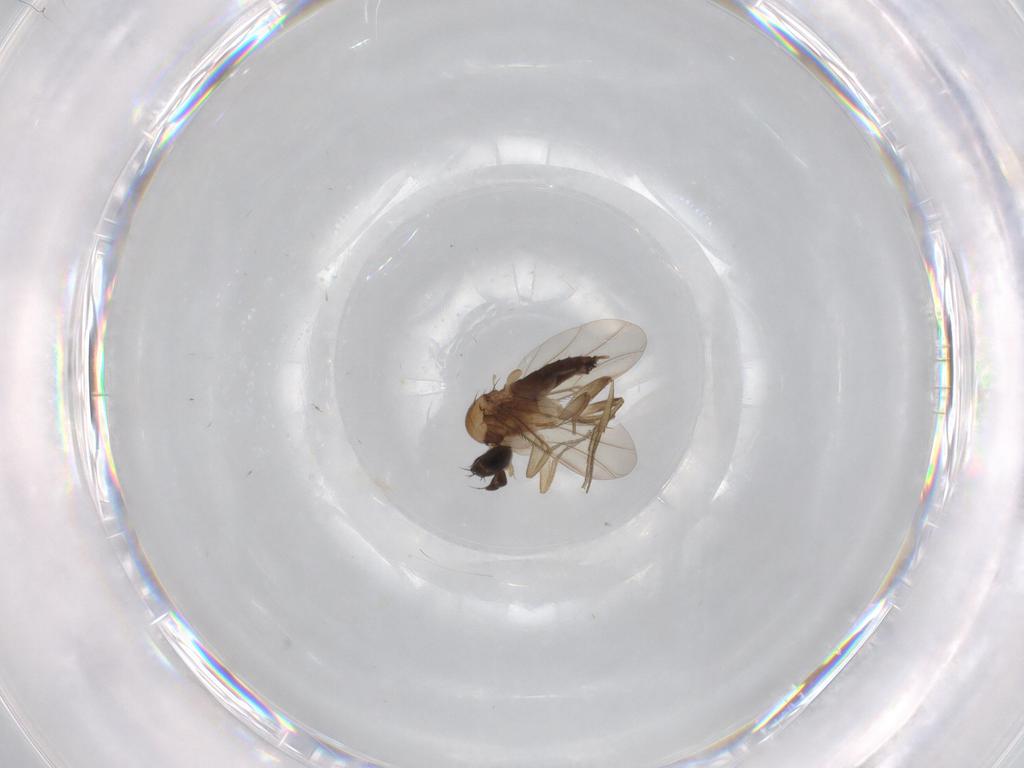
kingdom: Animalia
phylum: Arthropoda
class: Insecta
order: Diptera
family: Phoridae
